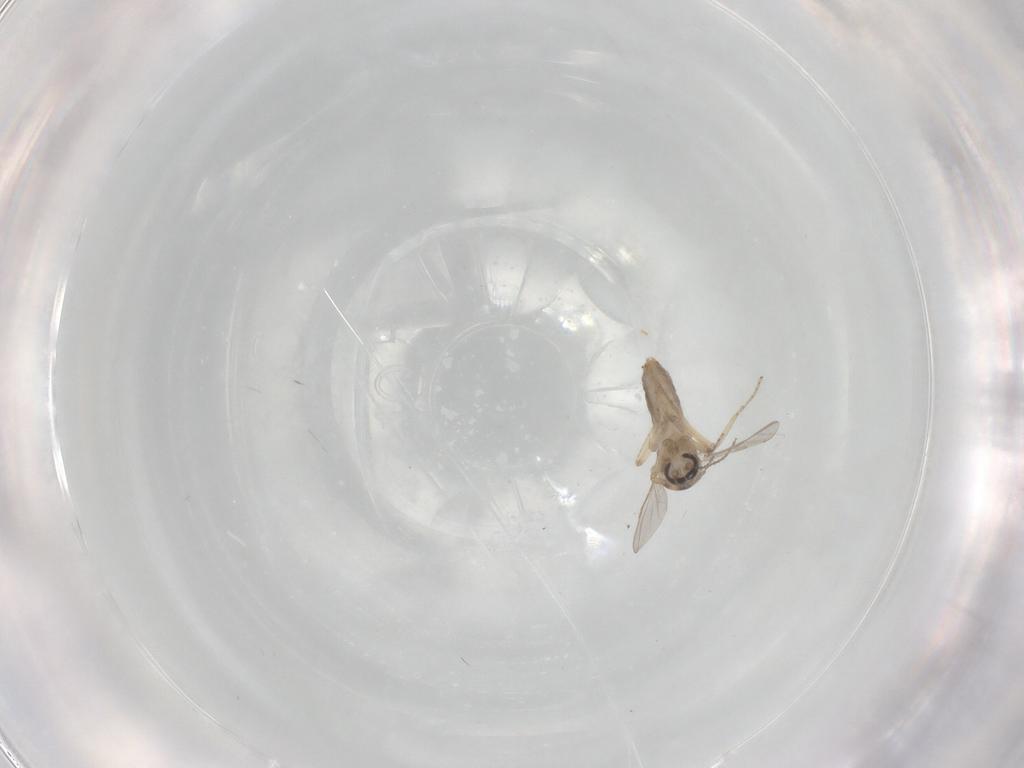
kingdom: Animalia
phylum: Arthropoda
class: Insecta
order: Diptera
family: Ceratopogonidae
